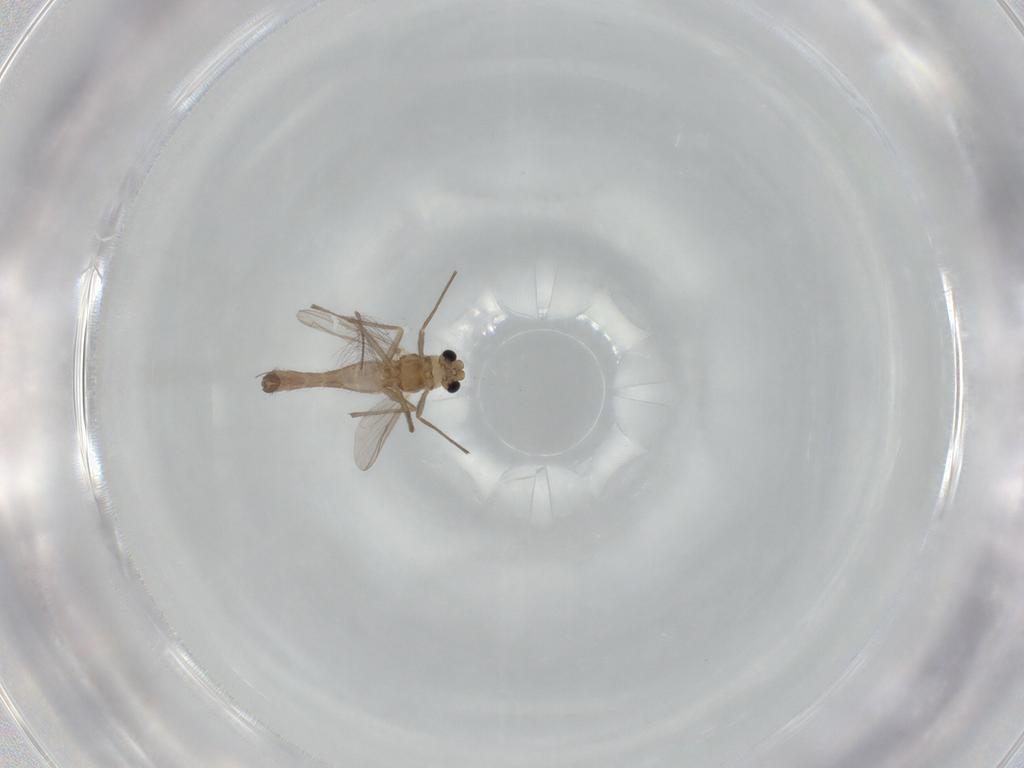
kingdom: Animalia
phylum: Arthropoda
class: Insecta
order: Diptera
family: Chironomidae
